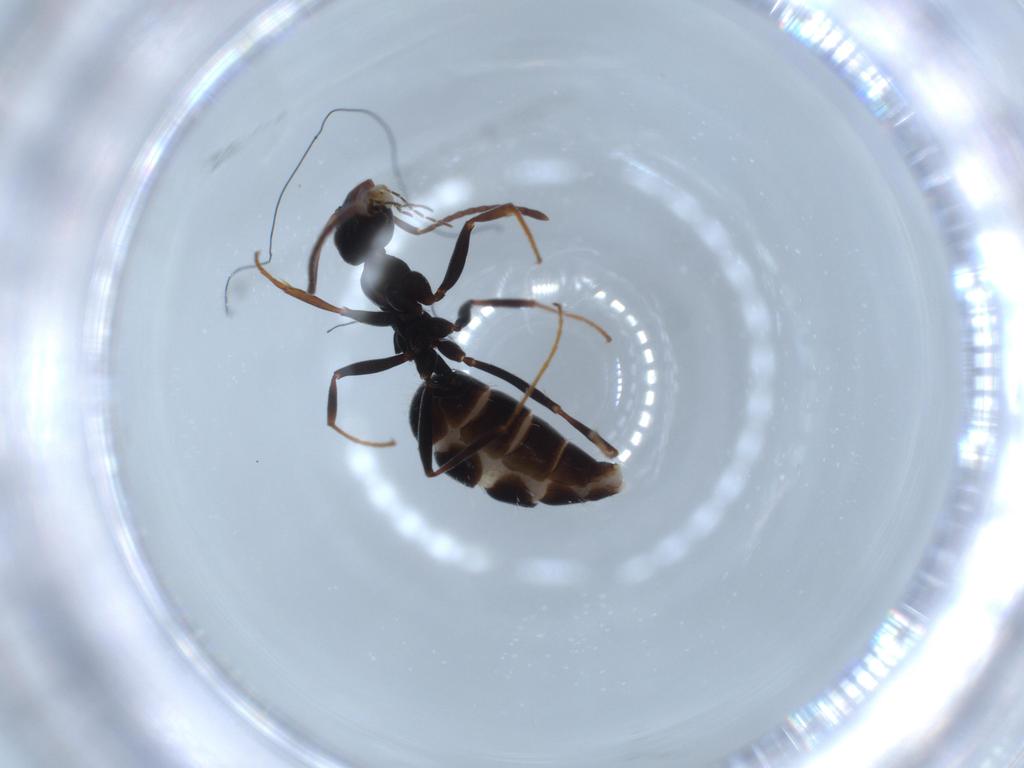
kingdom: Animalia
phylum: Arthropoda
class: Insecta
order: Hymenoptera
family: Formicidae
